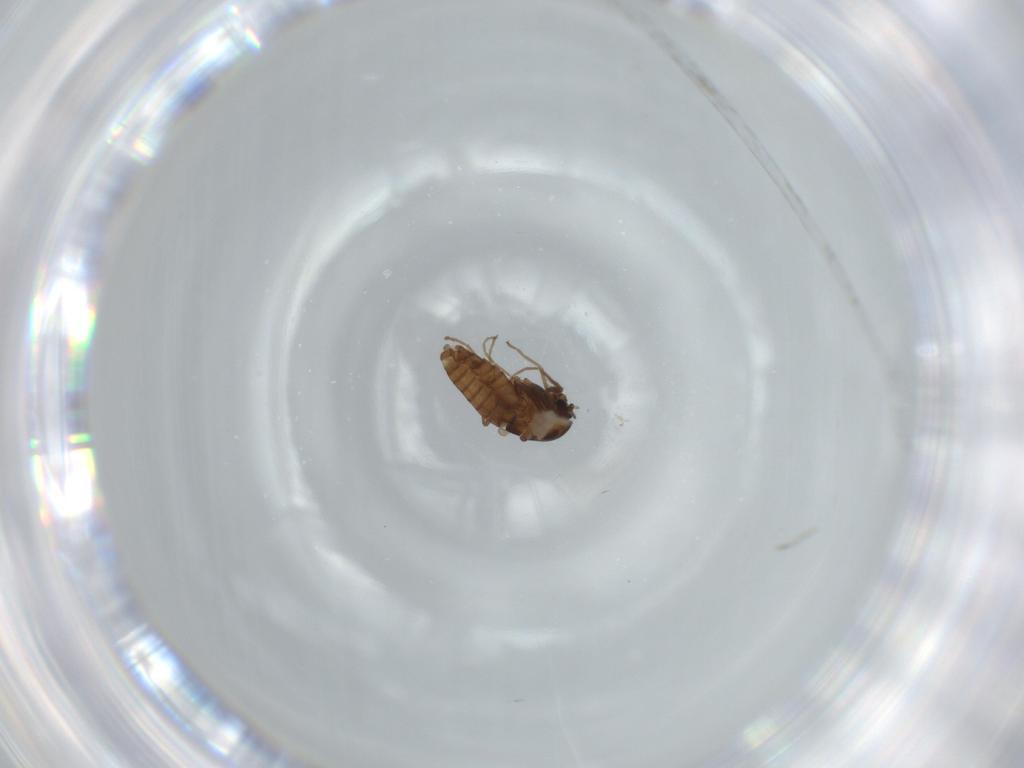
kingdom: Animalia
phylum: Arthropoda
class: Insecta
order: Diptera
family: Chironomidae
